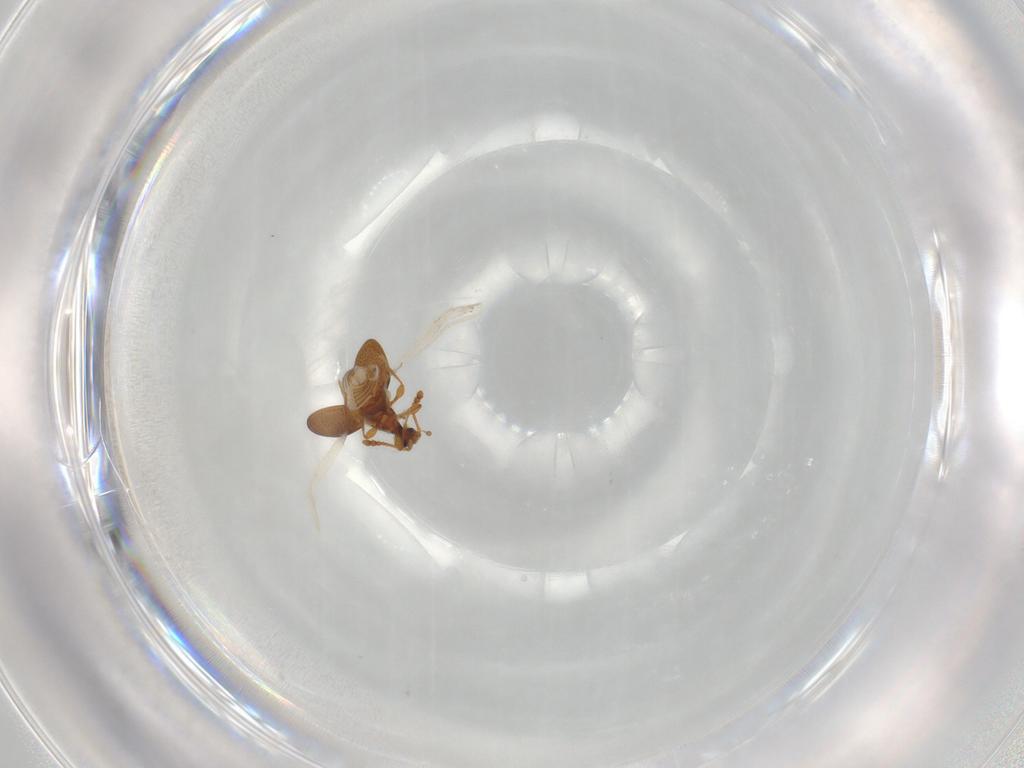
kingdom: Animalia
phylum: Arthropoda
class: Insecta
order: Coleoptera
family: Staphylinidae
